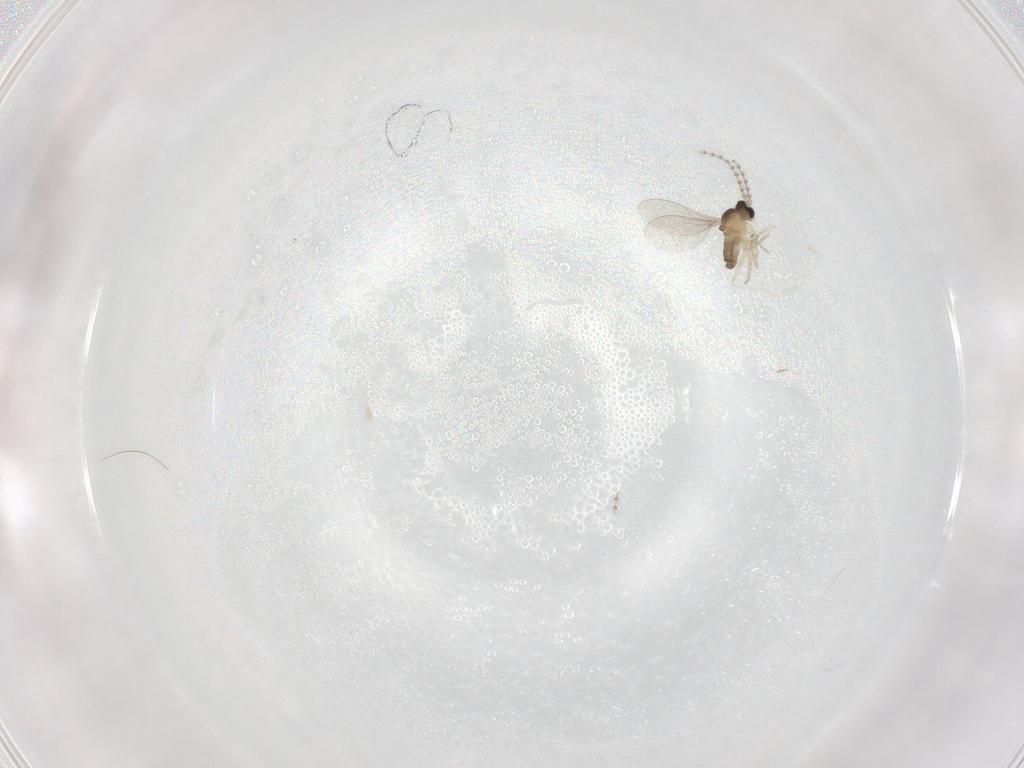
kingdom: Animalia
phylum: Arthropoda
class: Insecta
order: Diptera
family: Cecidomyiidae
